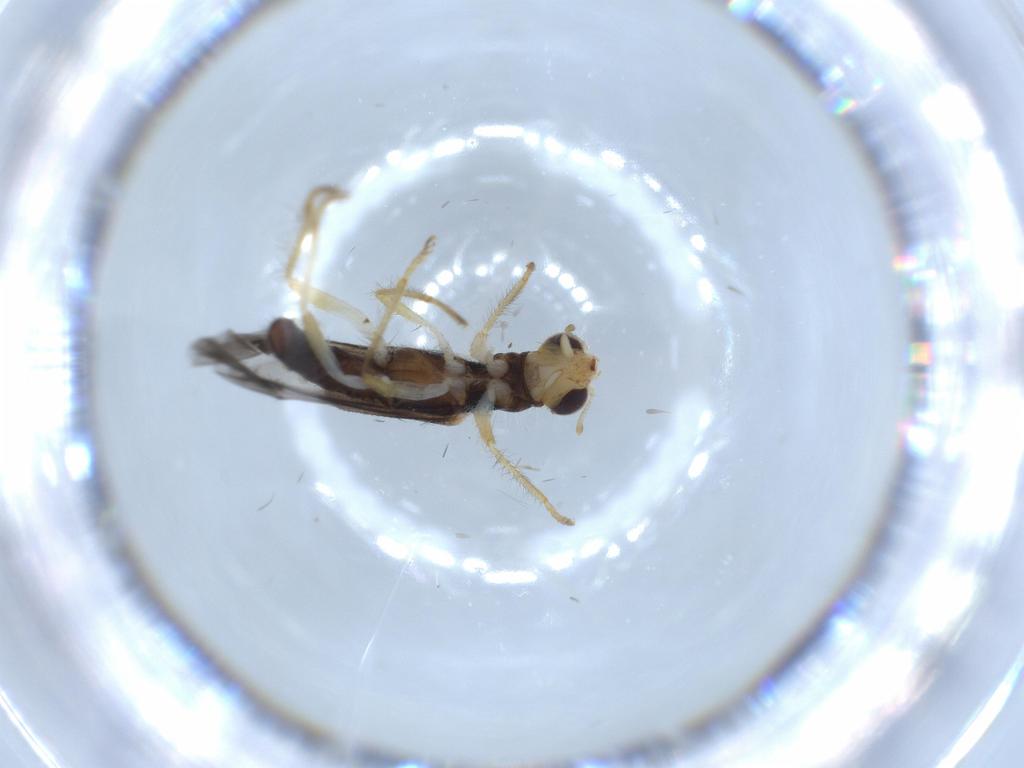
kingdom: Animalia
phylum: Arthropoda
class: Insecta
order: Coleoptera
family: Cleridae
